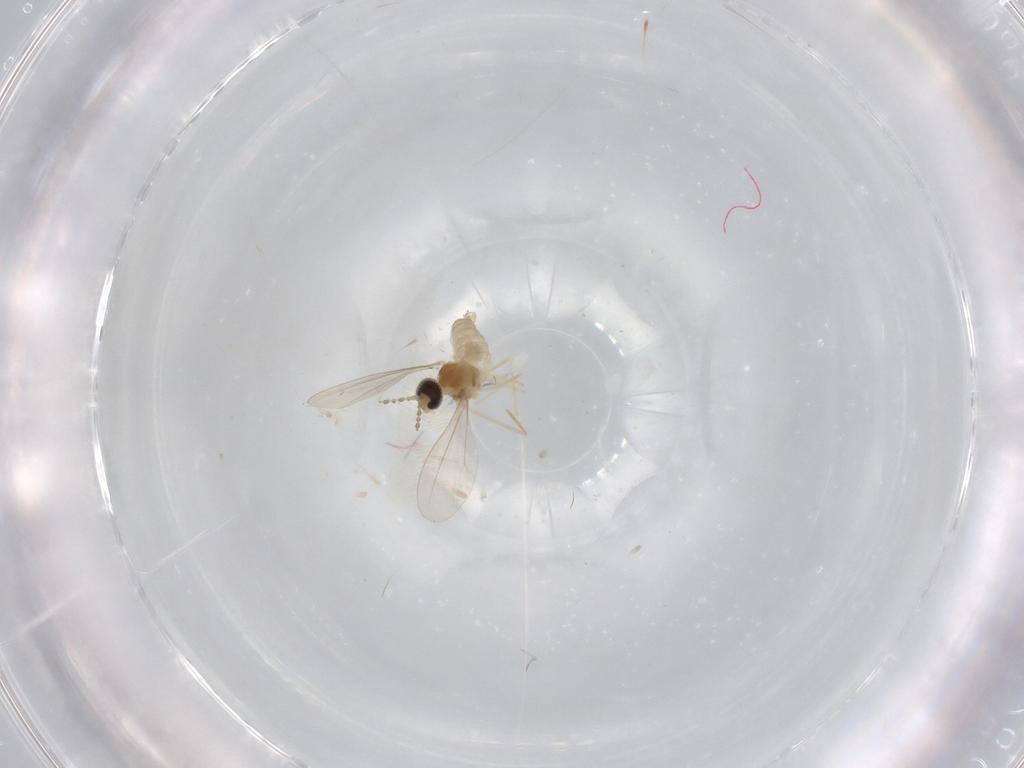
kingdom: Animalia
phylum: Arthropoda
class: Insecta
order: Diptera
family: Cecidomyiidae
